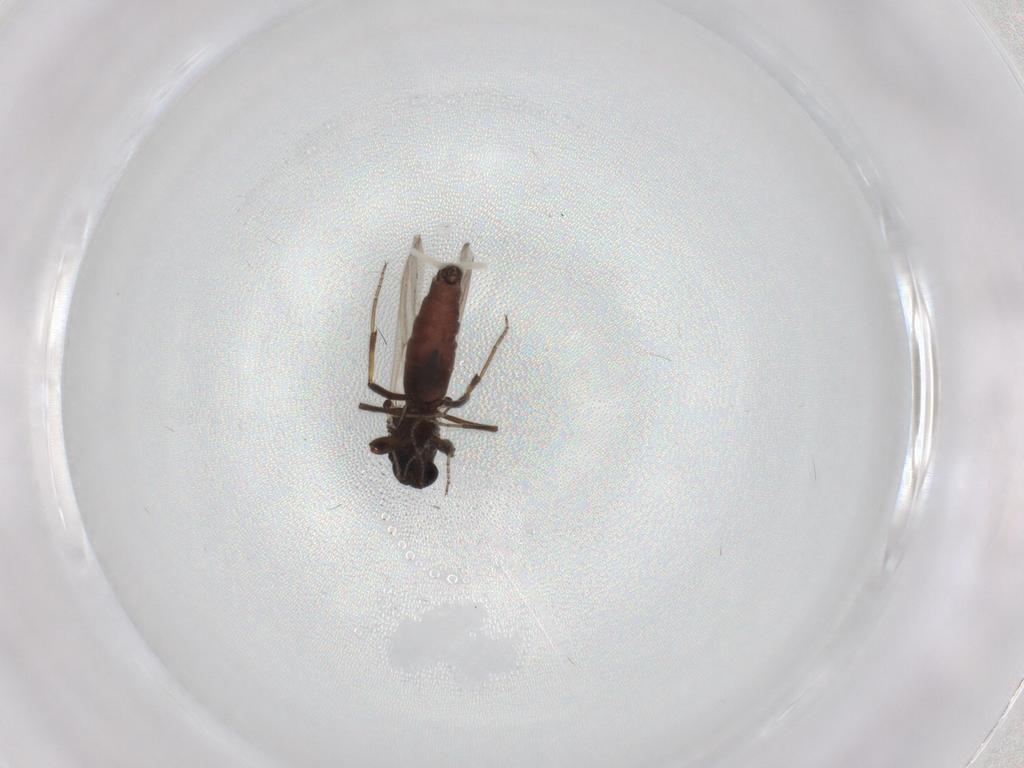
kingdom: Animalia
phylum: Arthropoda
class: Insecta
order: Diptera
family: Ceratopogonidae
